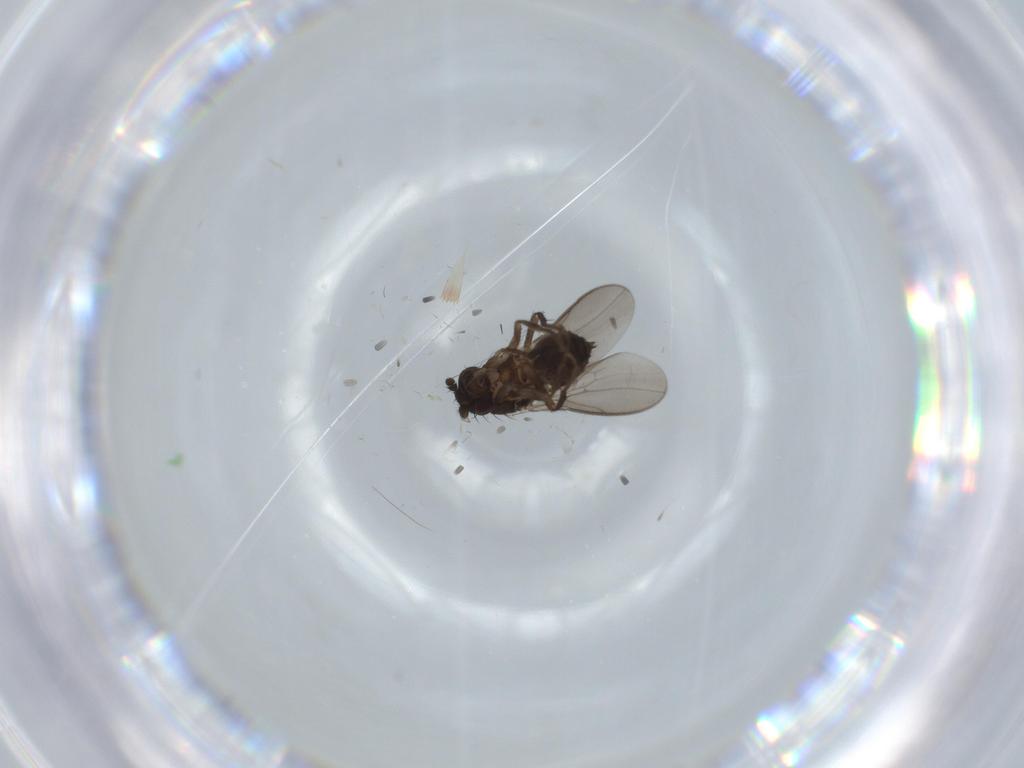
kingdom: Animalia
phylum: Arthropoda
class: Insecta
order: Diptera
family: Sphaeroceridae
